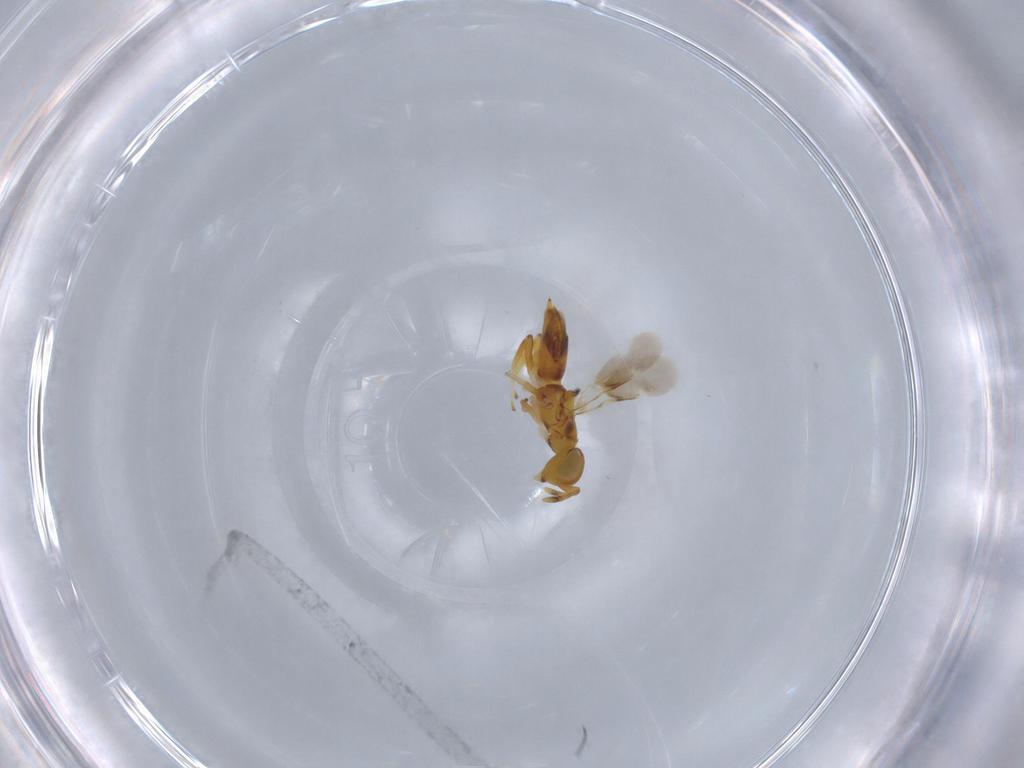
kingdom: Animalia
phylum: Arthropoda
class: Insecta
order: Hymenoptera
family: Encyrtidae
